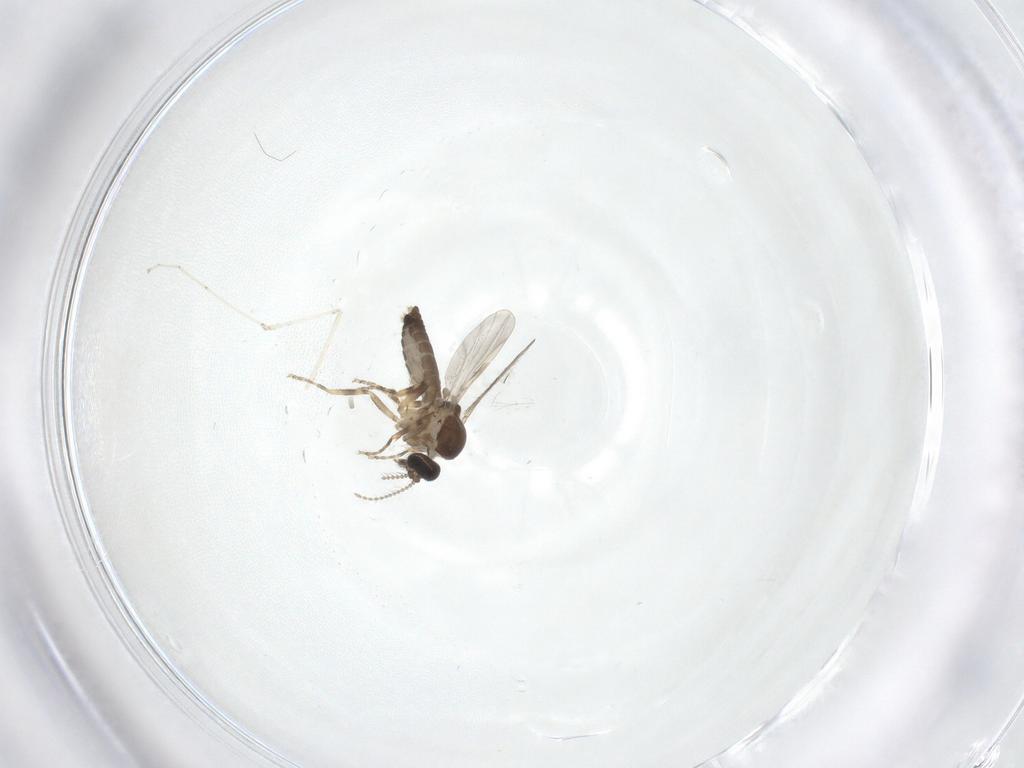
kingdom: Animalia
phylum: Arthropoda
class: Insecta
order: Diptera
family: Ceratopogonidae
